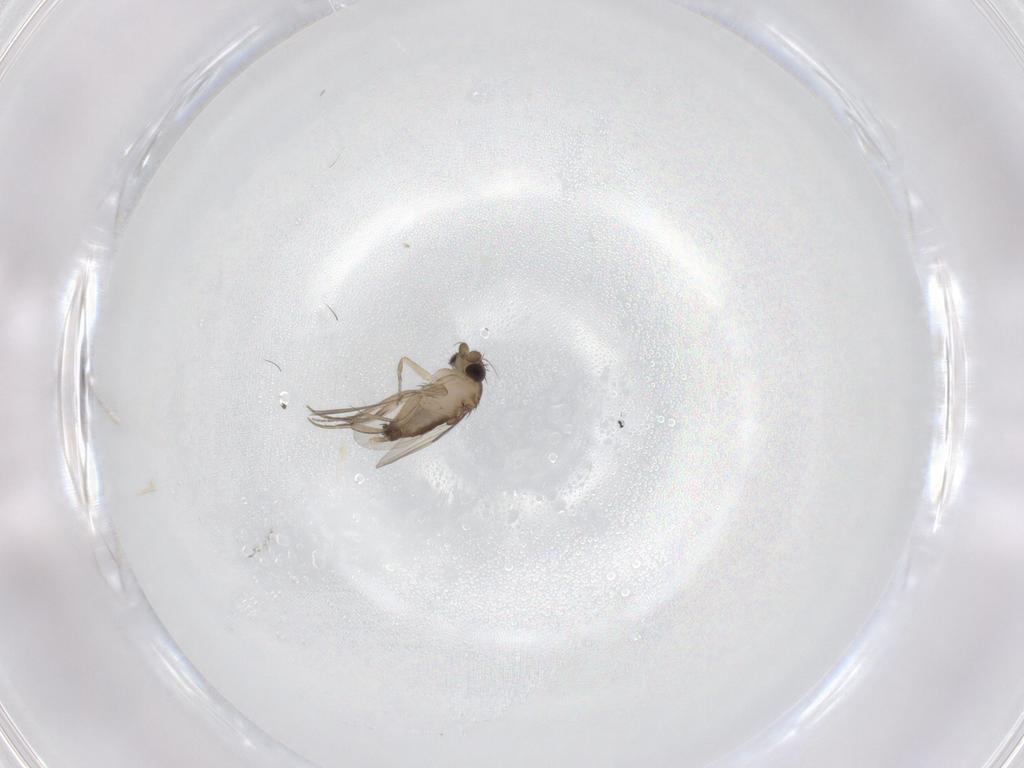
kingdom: Animalia
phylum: Arthropoda
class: Insecta
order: Diptera
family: Phoridae
